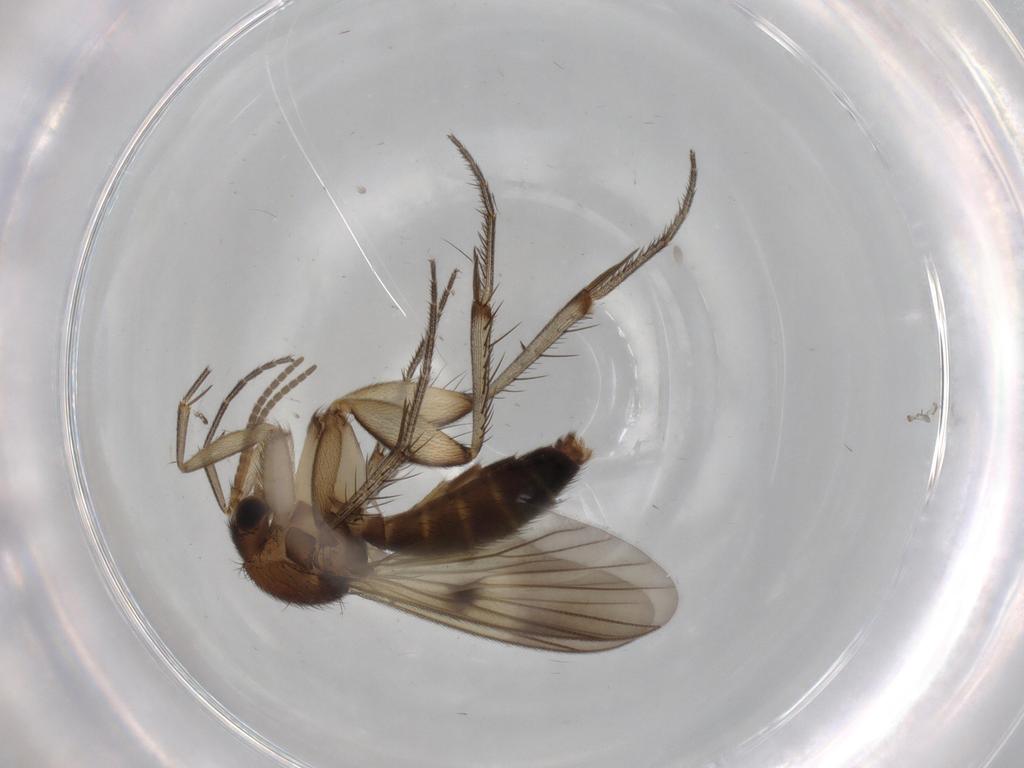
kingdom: Animalia
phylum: Arthropoda
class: Insecta
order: Diptera
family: Cecidomyiidae
